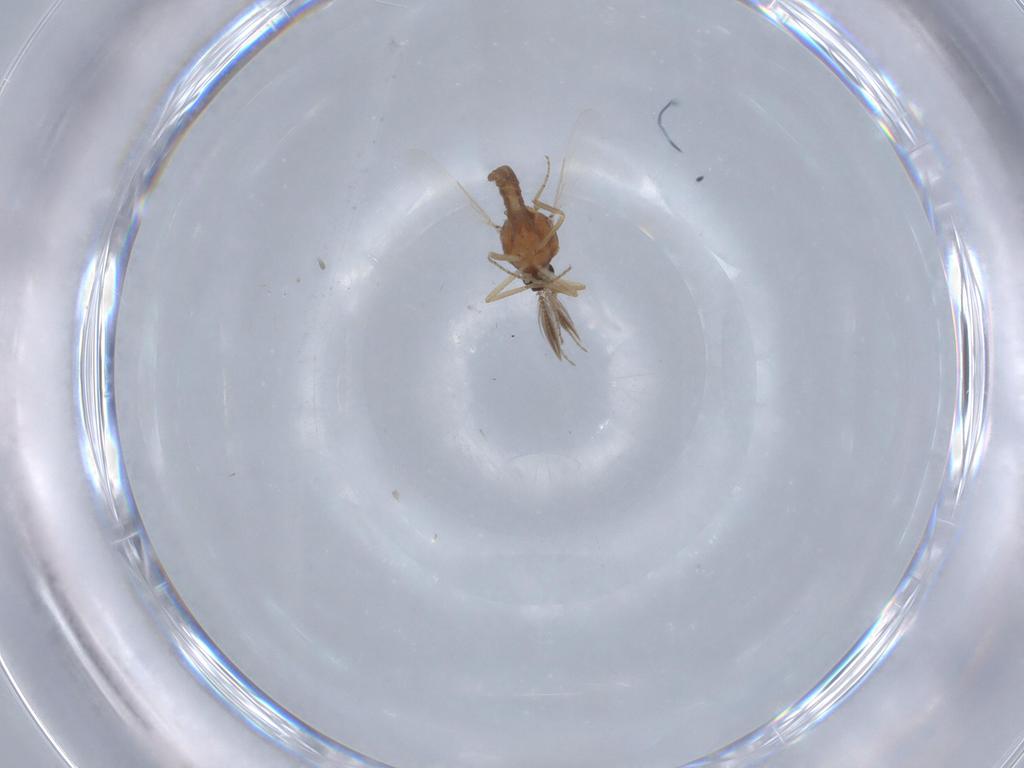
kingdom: Animalia
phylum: Arthropoda
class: Insecta
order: Diptera
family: Ceratopogonidae
